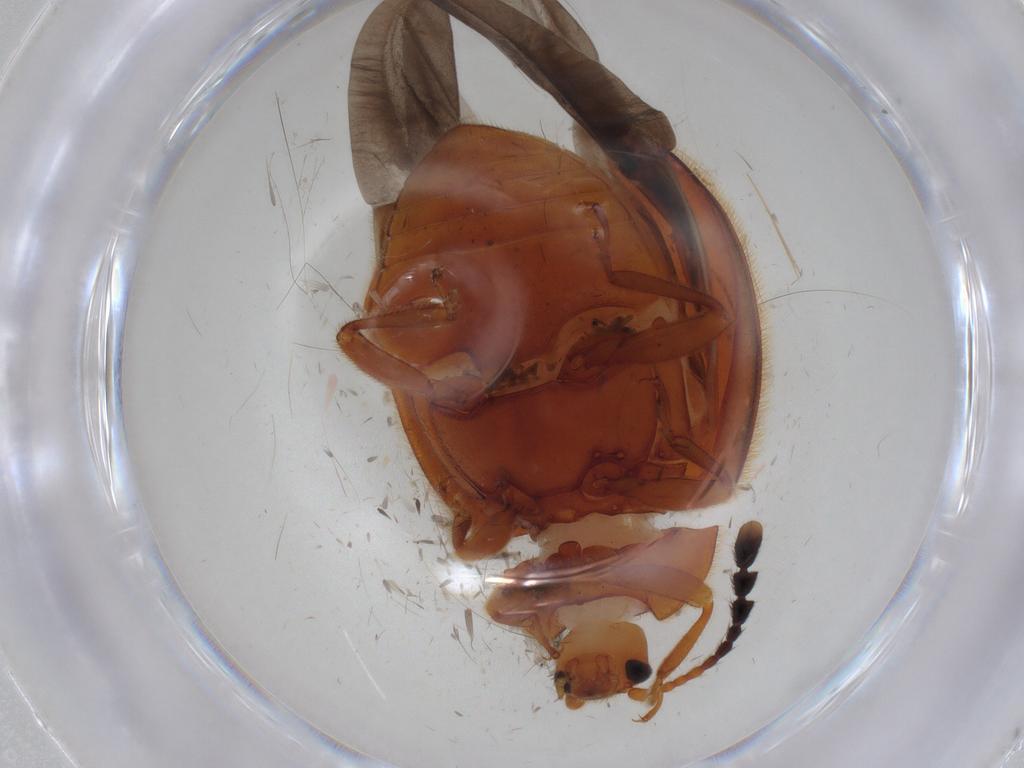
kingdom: Animalia
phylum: Arthropoda
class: Insecta
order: Coleoptera
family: Endomychidae
